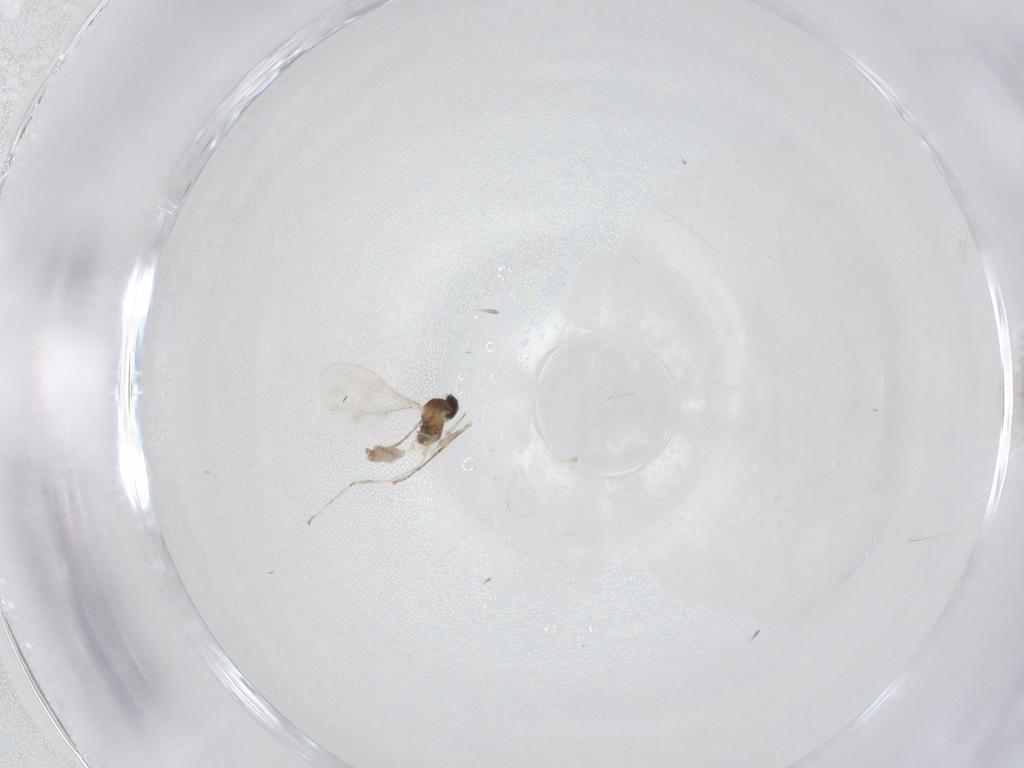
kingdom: Animalia
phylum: Arthropoda
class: Insecta
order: Diptera
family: Cecidomyiidae
